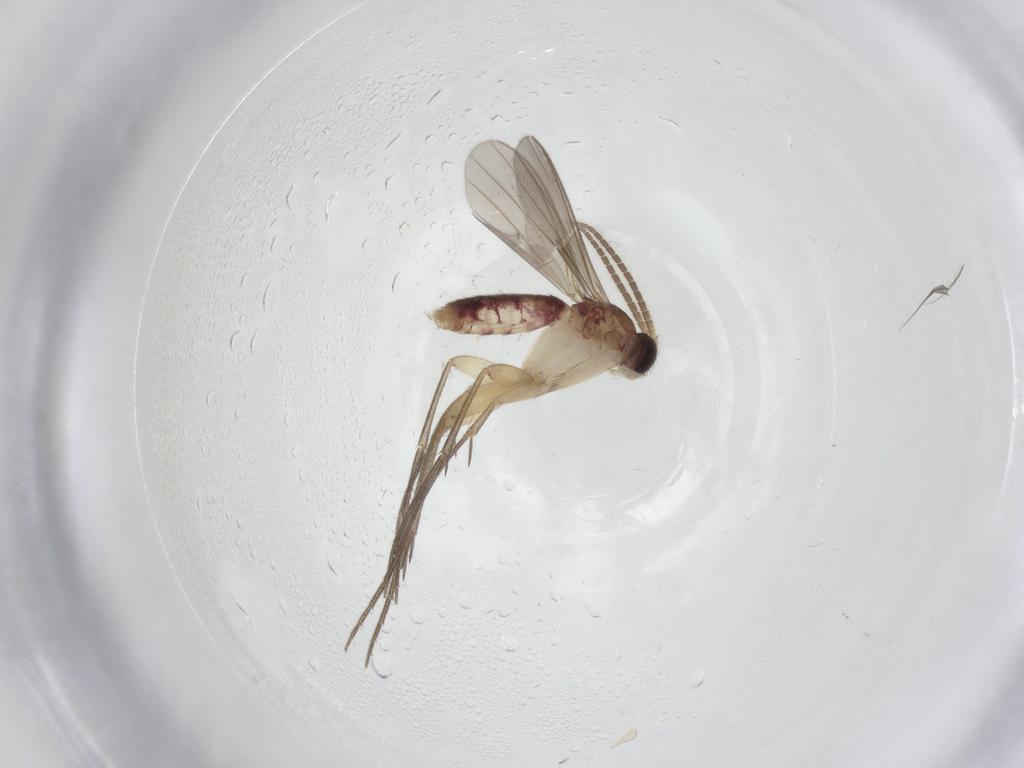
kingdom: Animalia
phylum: Arthropoda
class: Insecta
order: Diptera
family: Mycetophilidae
